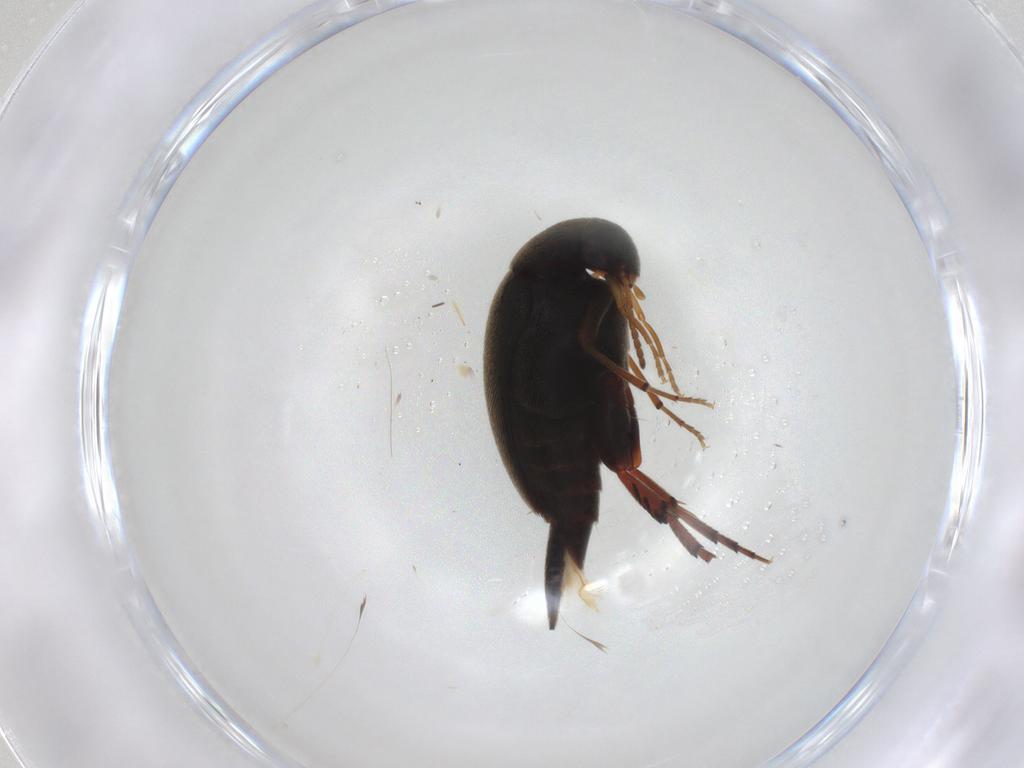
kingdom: Animalia
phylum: Arthropoda
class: Insecta
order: Coleoptera
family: Mordellidae
